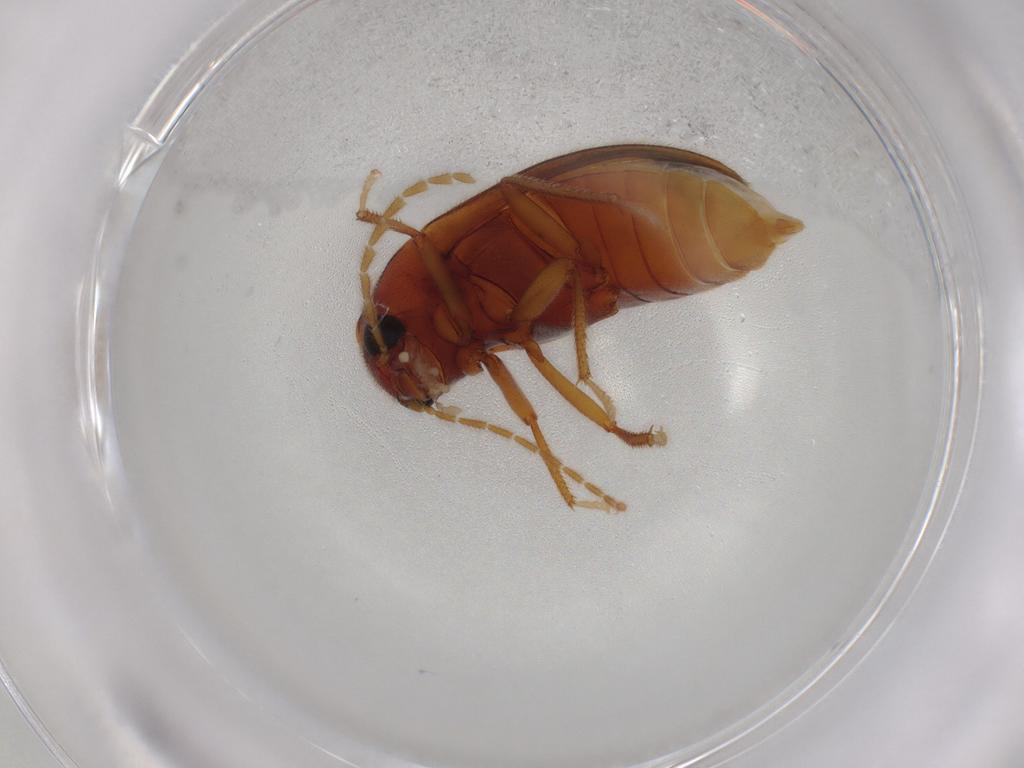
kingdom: Animalia
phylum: Arthropoda
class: Insecta
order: Coleoptera
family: Ptilodactylidae
